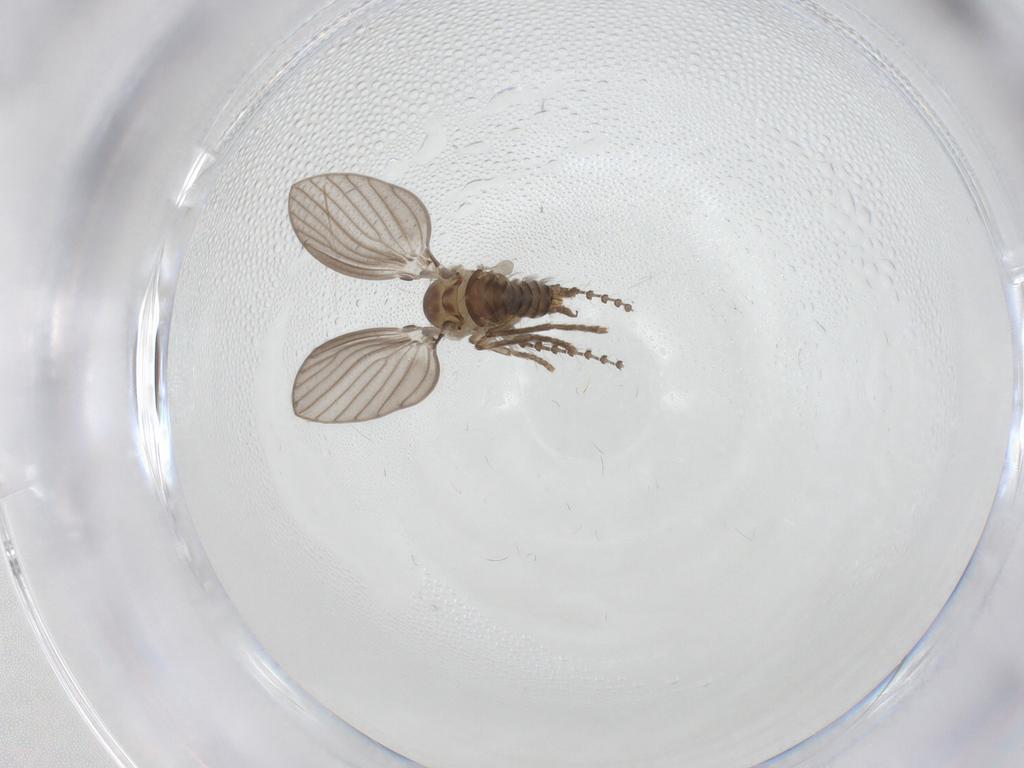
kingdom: Animalia
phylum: Arthropoda
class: Insecta
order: Diptera
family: Psychodidae
